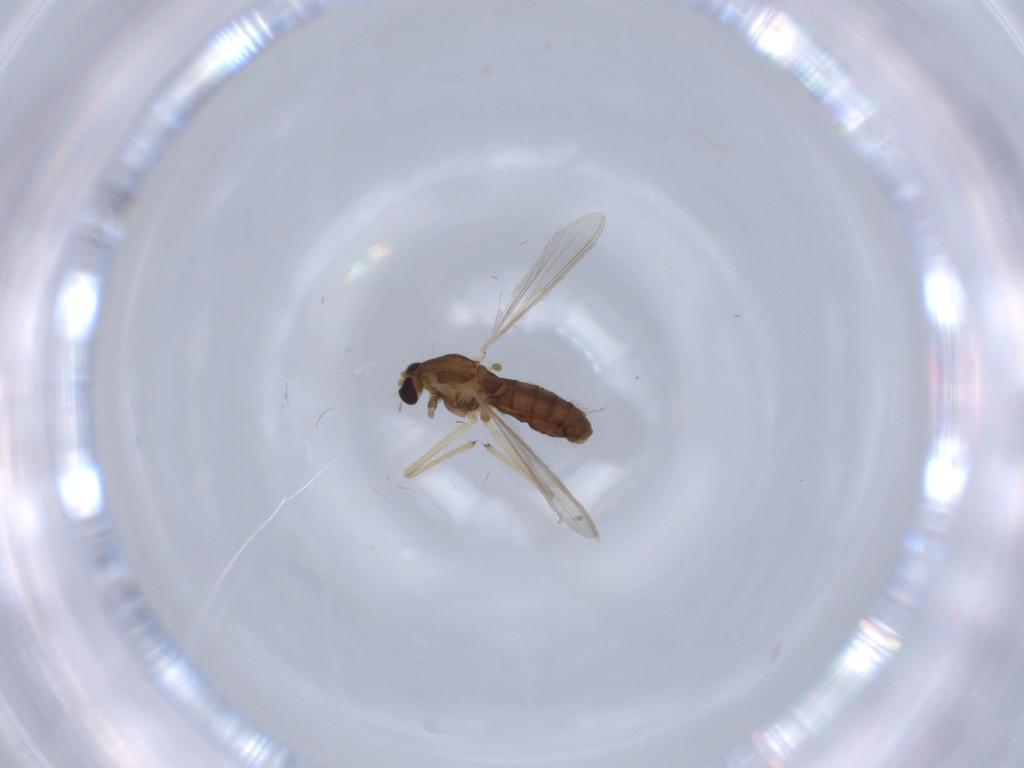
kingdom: Animalia
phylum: Arthropoda
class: Insecta
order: Diptera
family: Chironomidae
